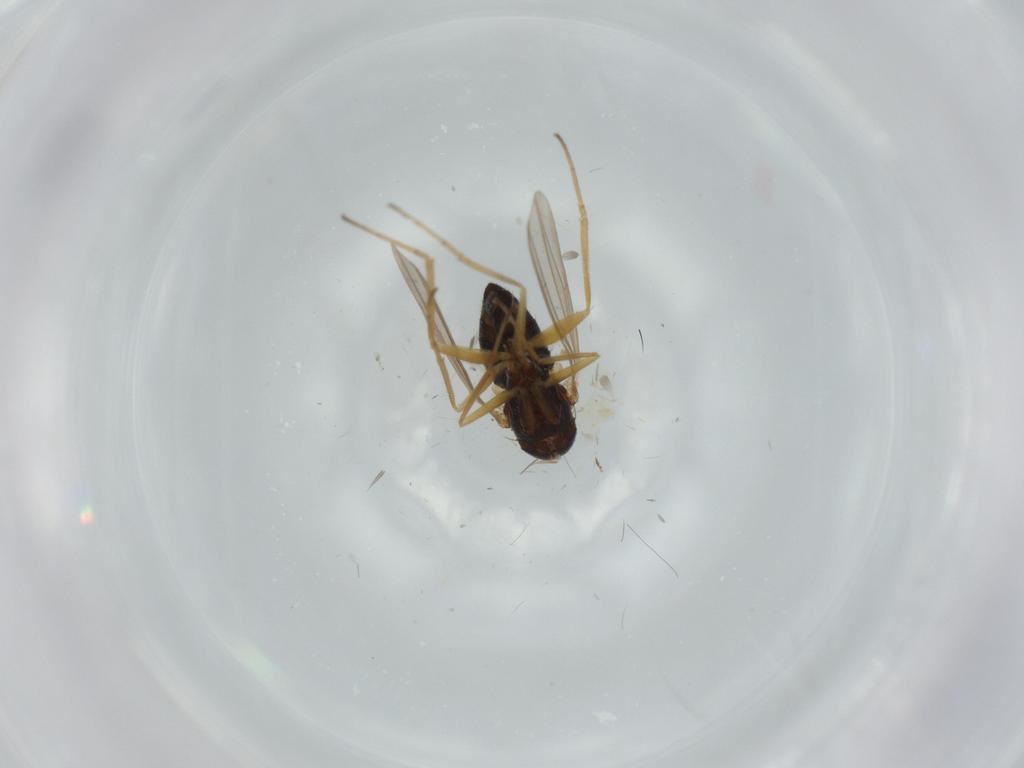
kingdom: Animalia
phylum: Arthropoda
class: Insecta
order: Diptera
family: Dolichopodidae
